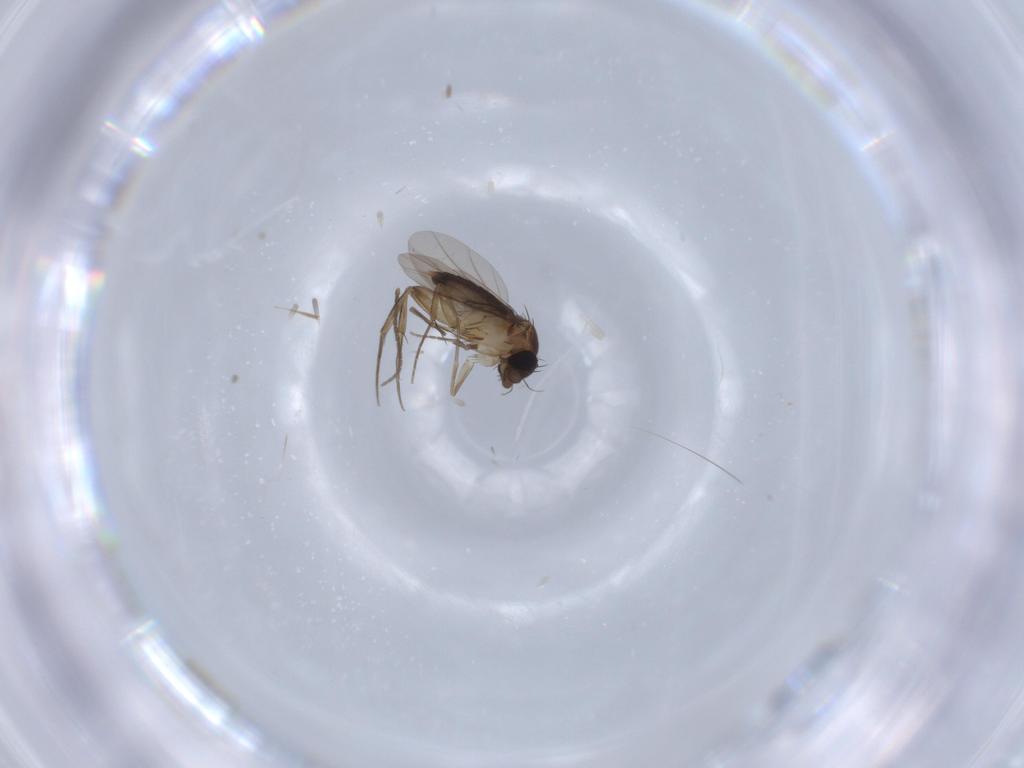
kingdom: Animalia
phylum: Arthropoda
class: Insecta
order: Diptera
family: Phoridae
